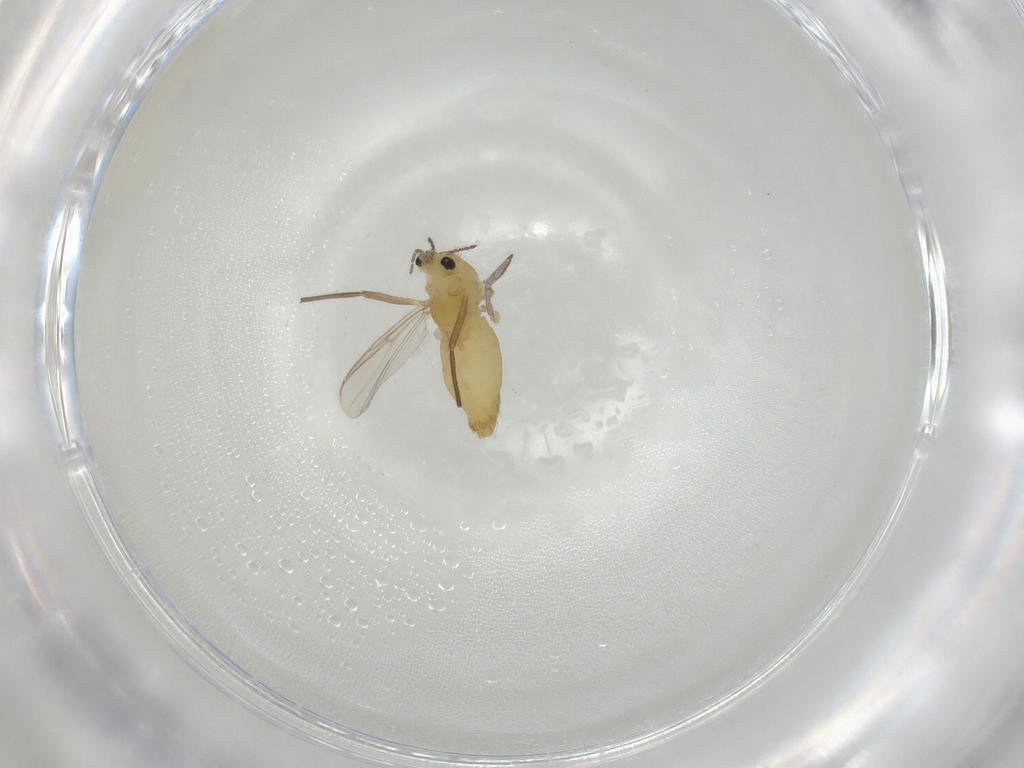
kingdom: Animalia
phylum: Arthropoda
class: Insecta
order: Diptera
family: Chironomidae
